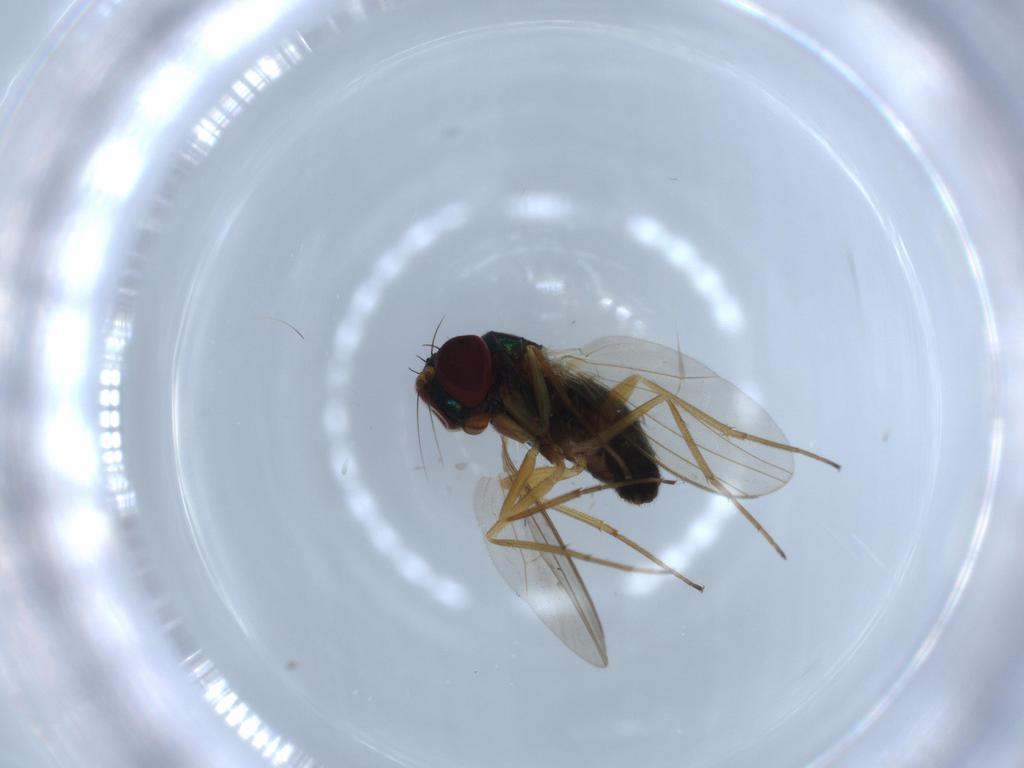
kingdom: Animalia
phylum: Arthropoda
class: Insecta
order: Diptera
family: Dolichopodidae
